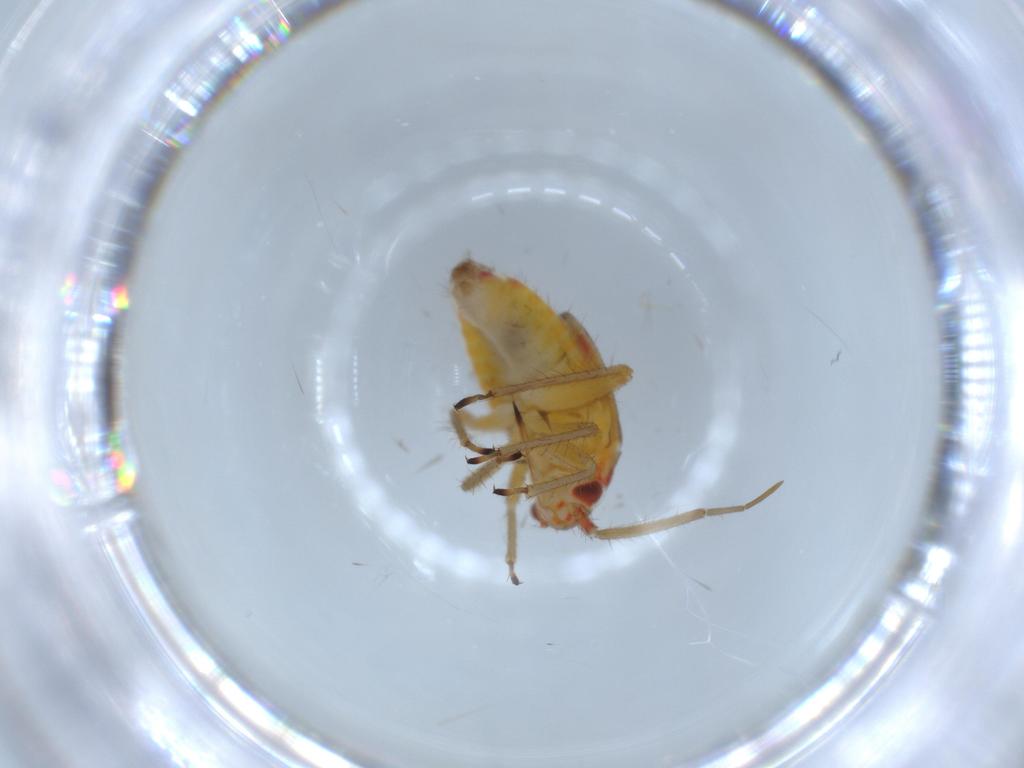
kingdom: Animalia
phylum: Arthropoda
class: Insecta
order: Hemiptera
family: Miridae
